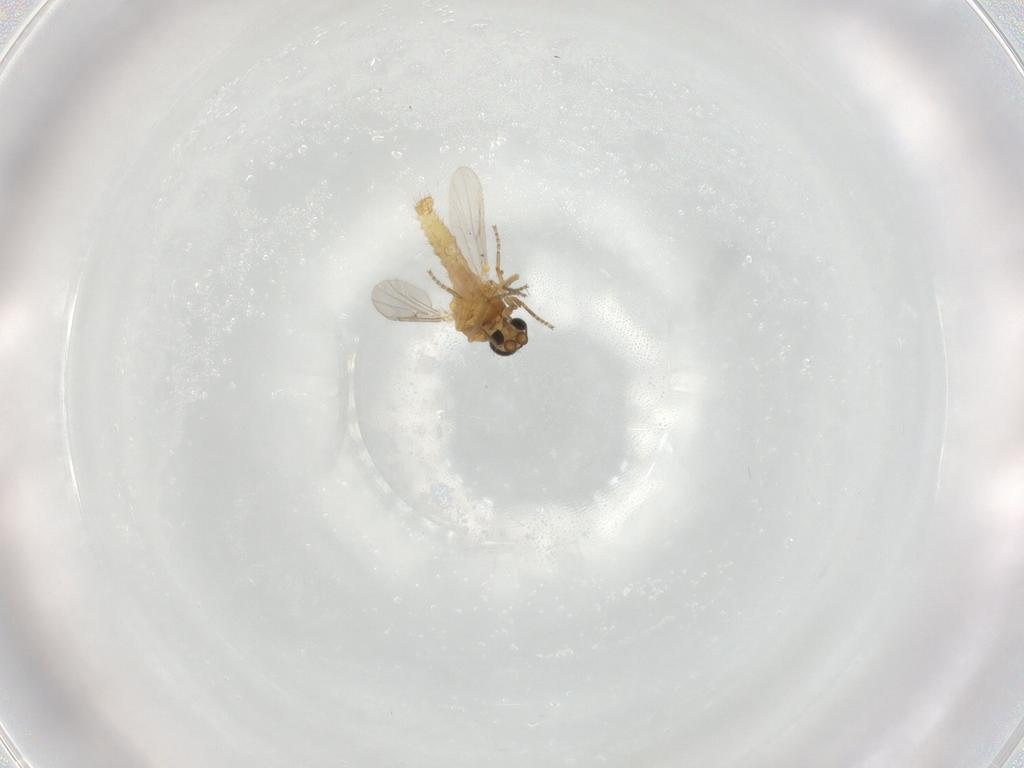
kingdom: Animalia
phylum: Arthropoda
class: Insecta
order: Diptera
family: Ceratopogonidae
